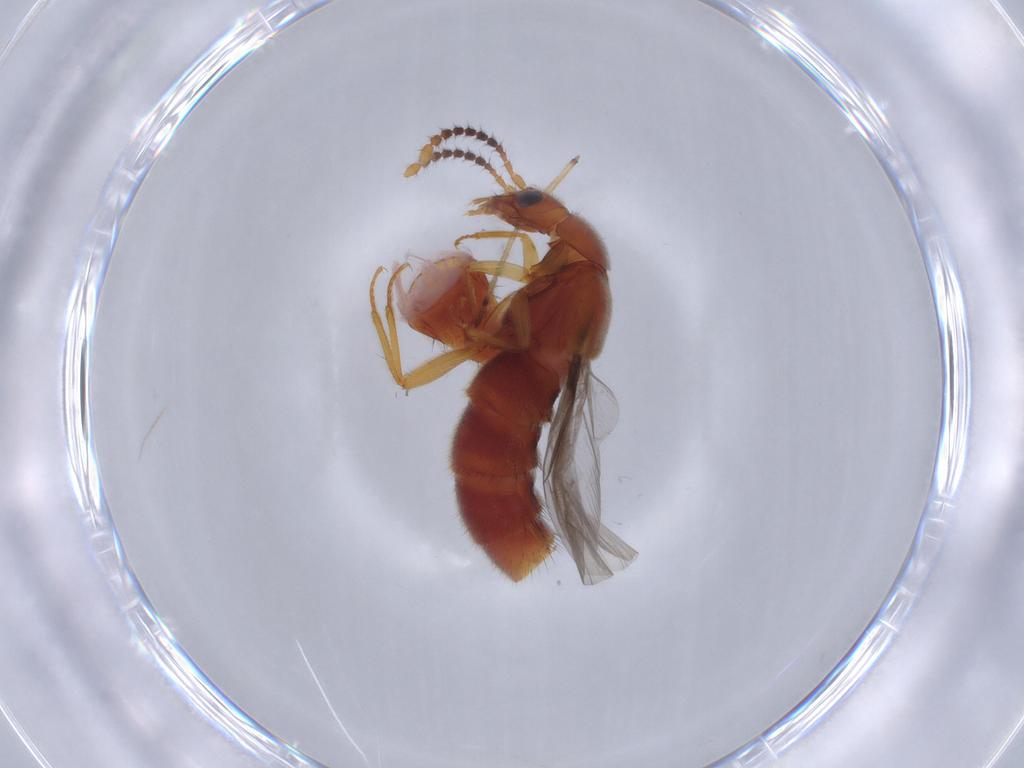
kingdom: Animalia
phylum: Arthropoda
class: Insecta
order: Coleoptera
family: Staphylinidae
